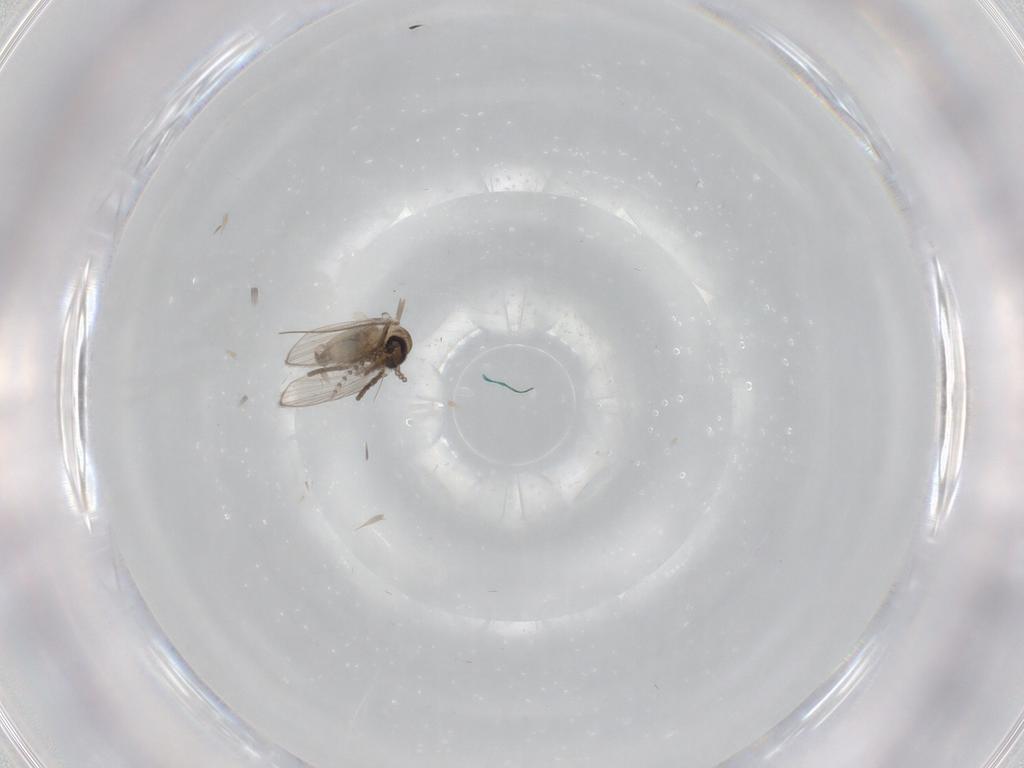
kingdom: Animalia
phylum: Arthropoda
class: Insecta
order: Diptera
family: Psychodidae
